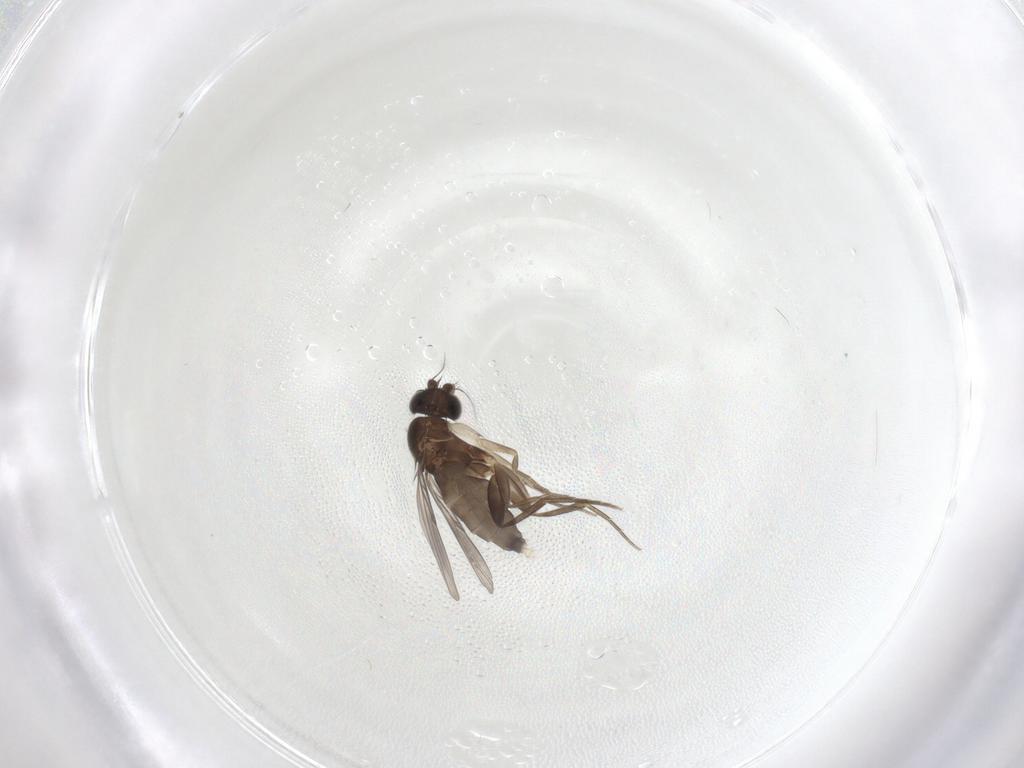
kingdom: Animalia
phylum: Arthropoda
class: Insecta
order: Diptera
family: Phoridae
